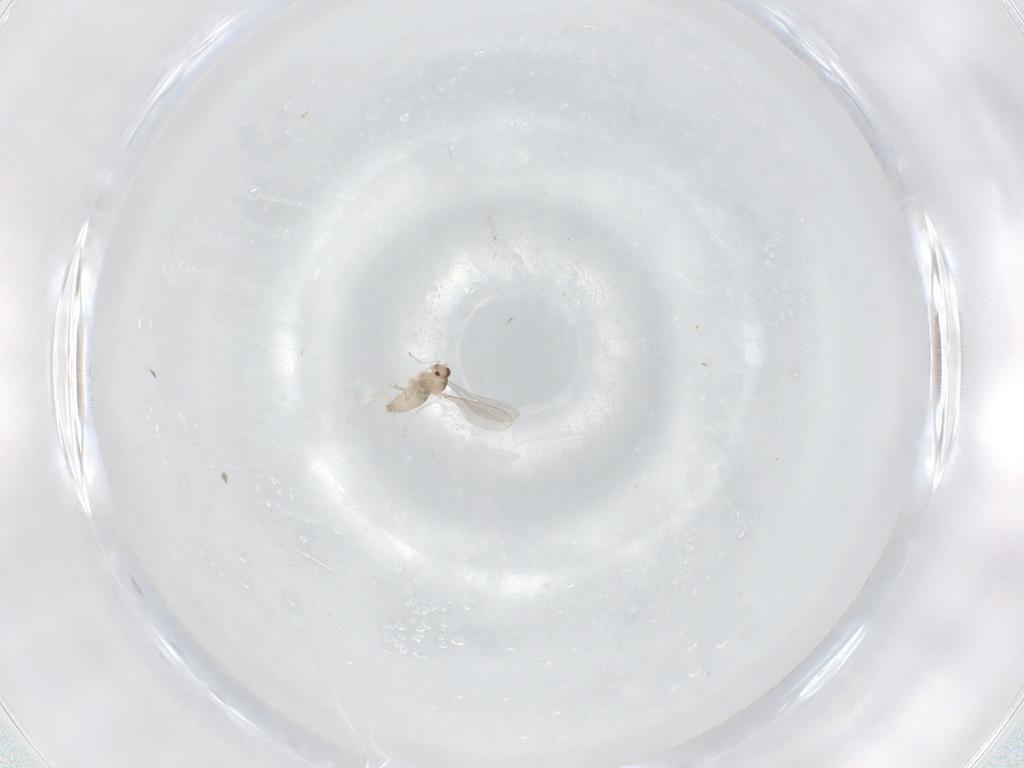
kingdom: Animalia
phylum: Arthropoda
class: Insecta
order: Diptera
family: Cecidomyiidae
